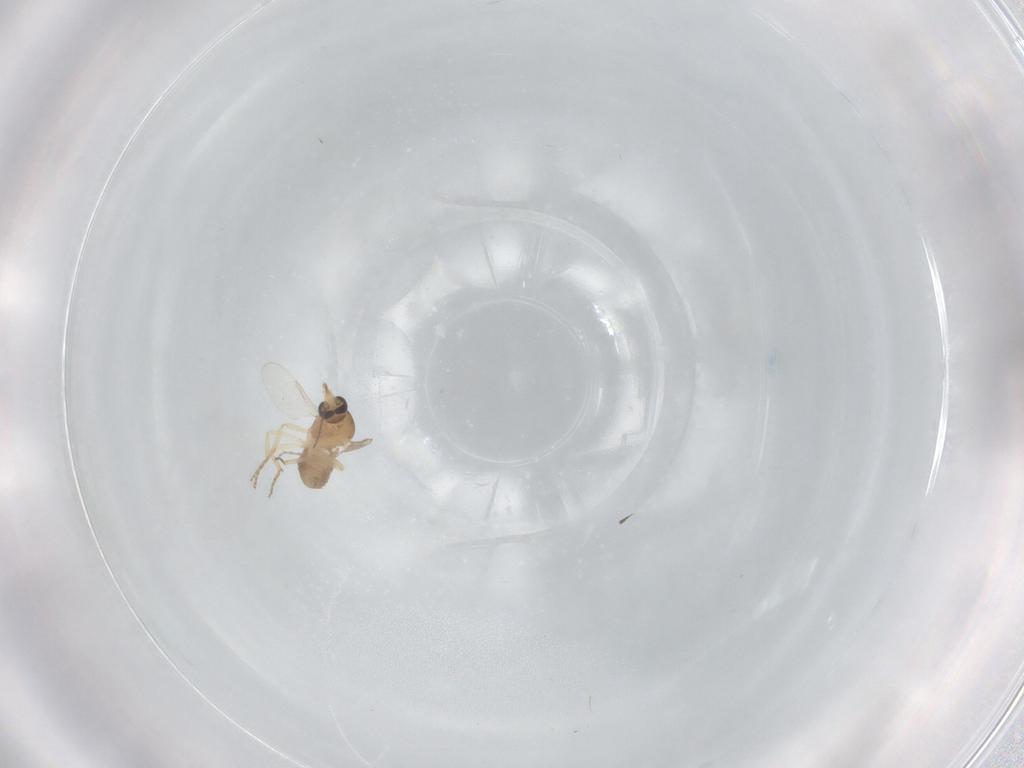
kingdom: Animalia
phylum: Arthropoda
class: Insecta
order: Diptera
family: Ceratopogonidae
